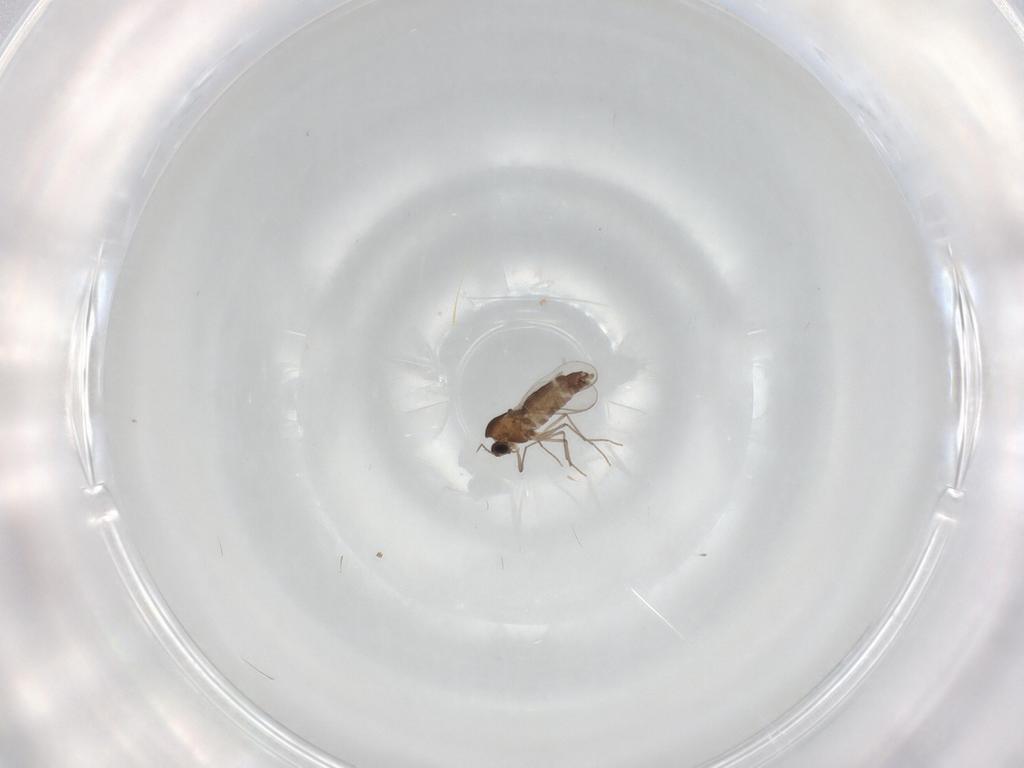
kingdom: Animalia
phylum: Arthropoda
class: Insecta
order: Diptera
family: Chironomidae
